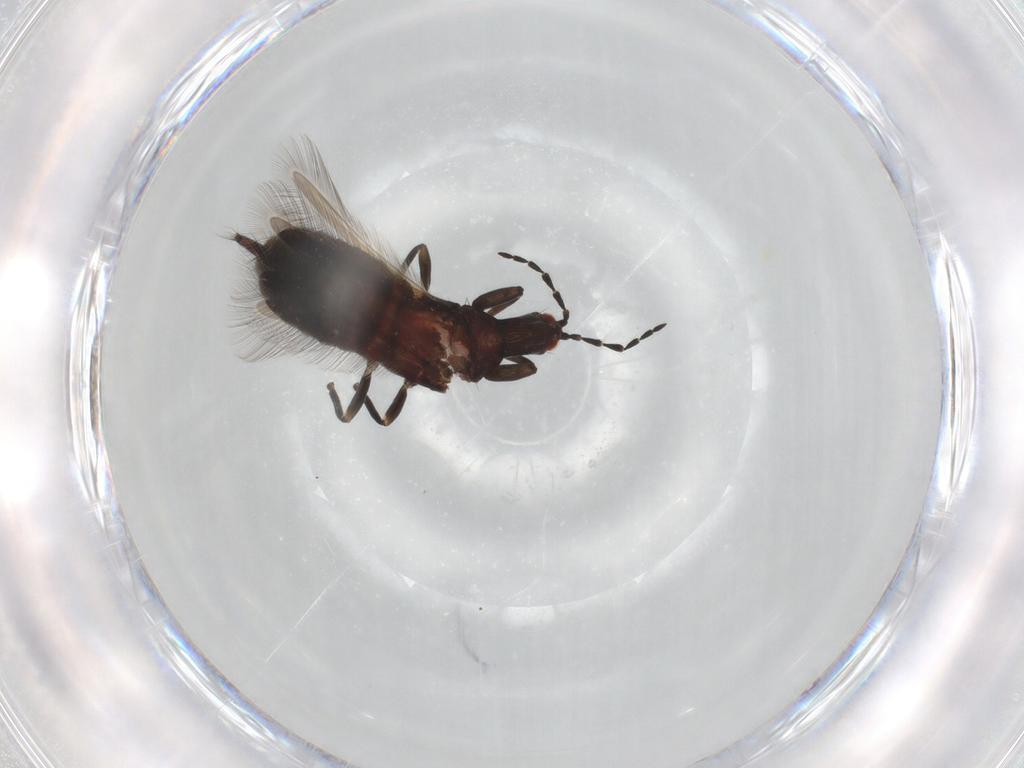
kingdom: Animalia
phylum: Arthropoda
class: Insecta
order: Thysanoptera
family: Phlaeothripidae
